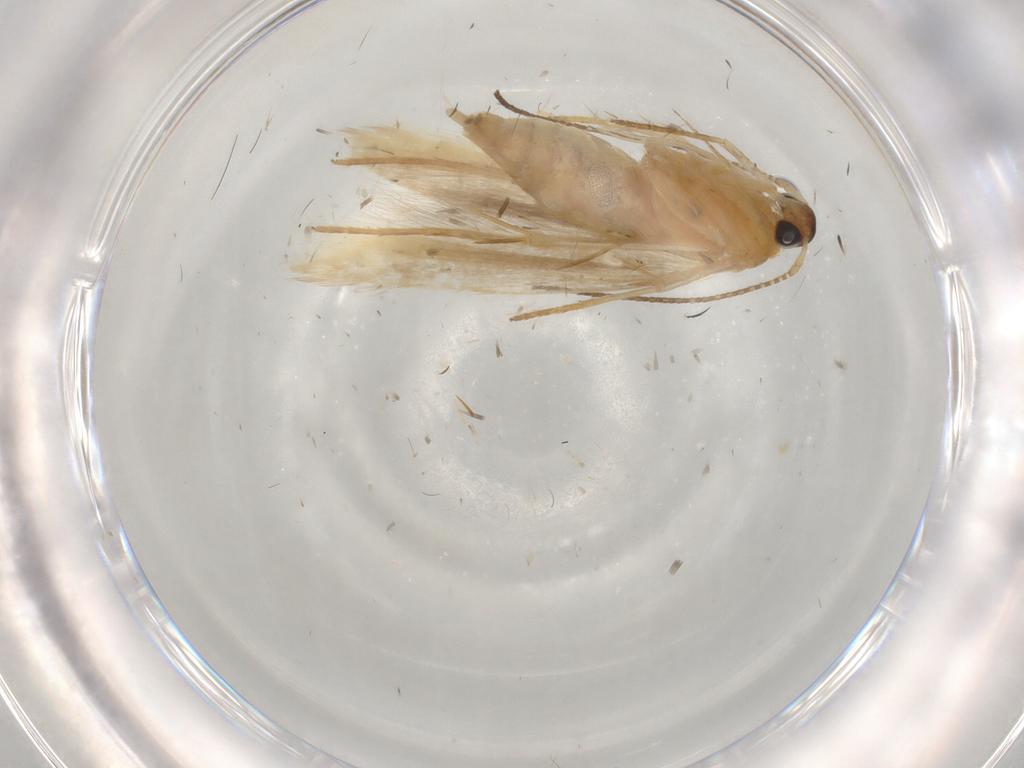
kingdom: Animalia
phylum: Arthropoda
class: Insecta
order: Lepidoptera
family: Lecithoceridae
